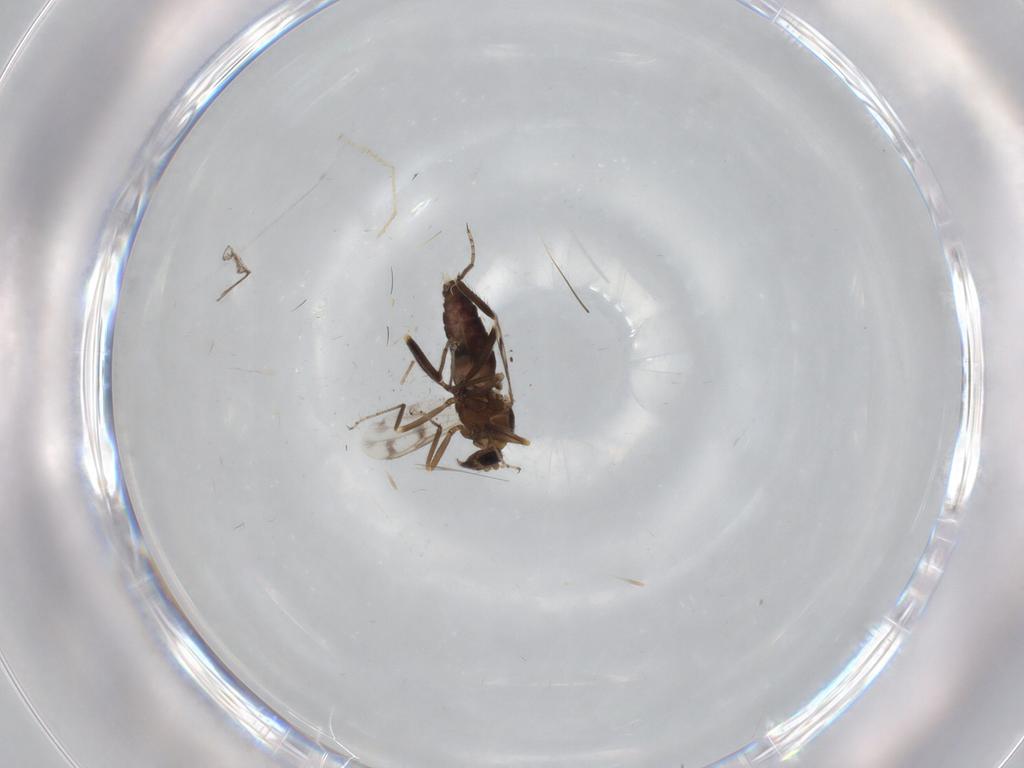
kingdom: Animalia
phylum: Arthropoda
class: Insecta
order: Diptera
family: Ceratopogonidae
